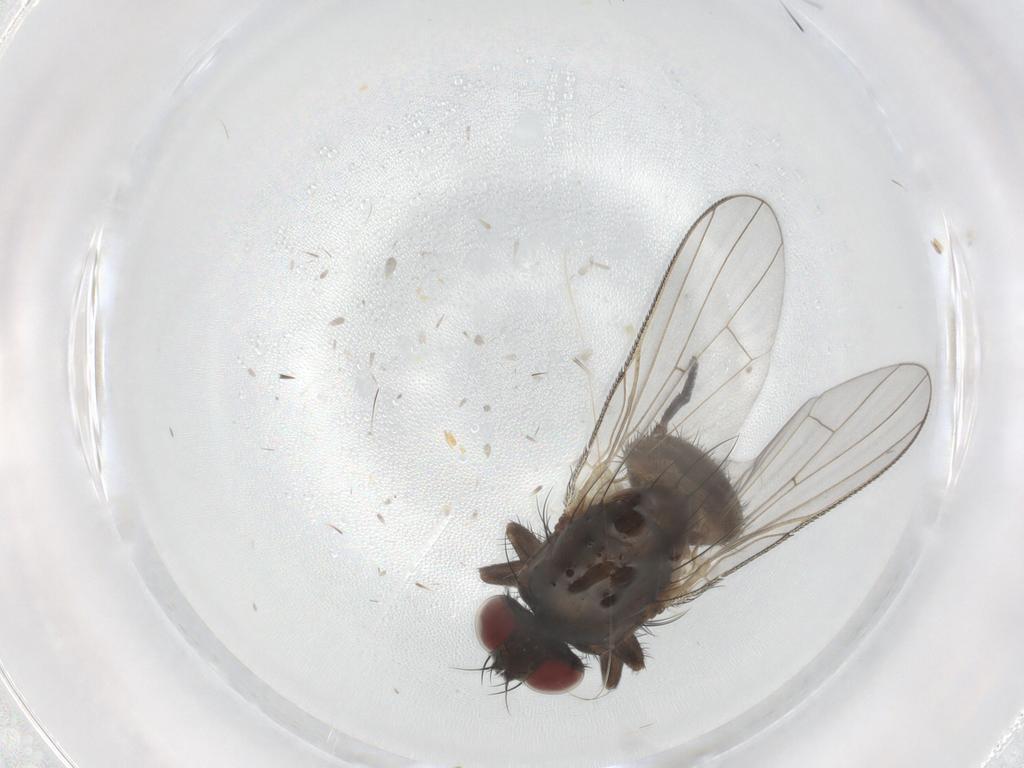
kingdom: Animalia
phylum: Arthropoda
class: Insecta
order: Diptera
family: Muscidae
